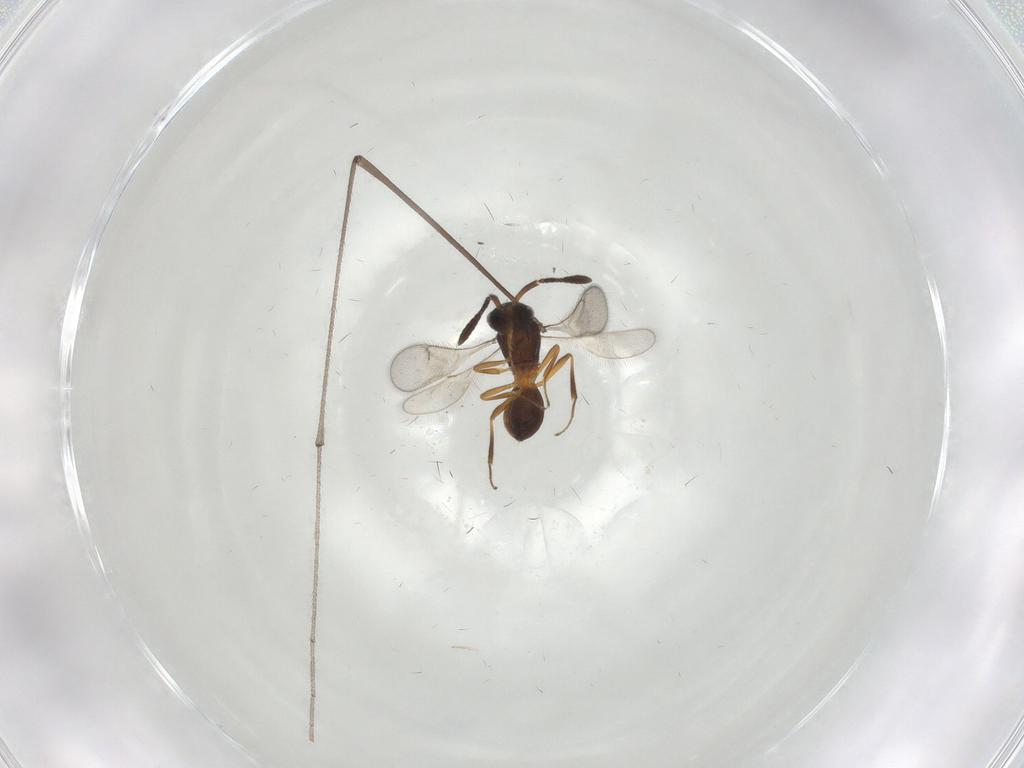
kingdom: Animalia
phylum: Arthropoda
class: Insecta
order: Hymenoptera
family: Scelionidae
